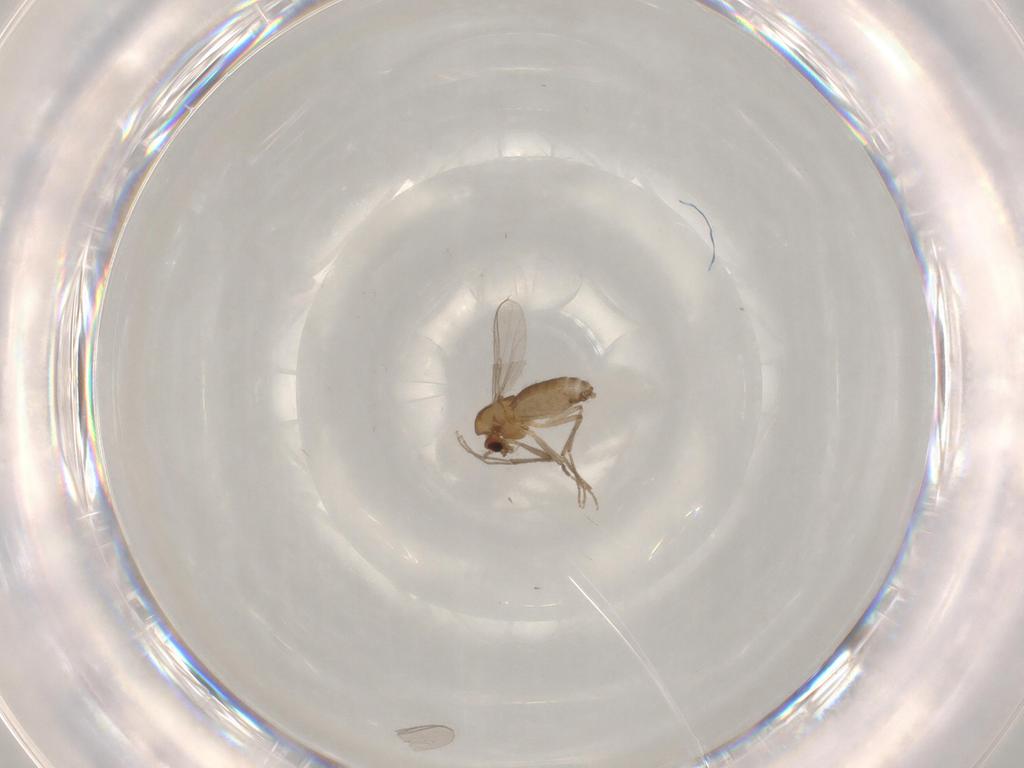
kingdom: Animalia
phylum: Arthropoda
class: Insecta
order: Diptera
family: Chironomidae
